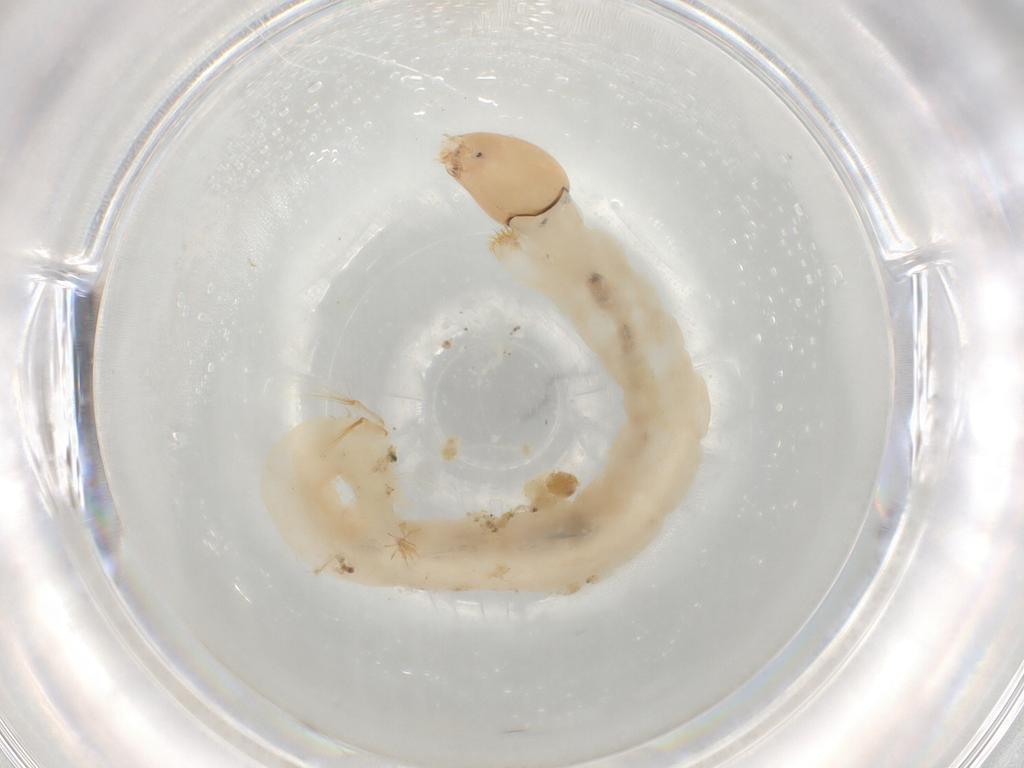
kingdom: Animalia
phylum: Arthropoda
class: Insecta
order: Diptera
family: Chironomidae
